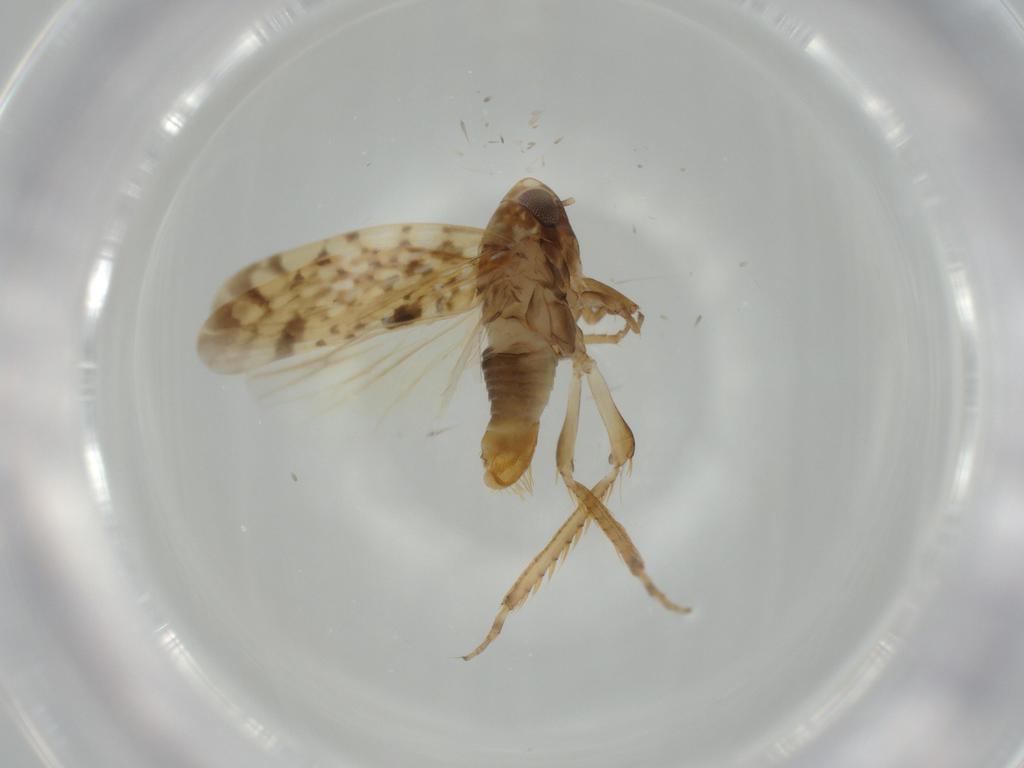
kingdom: Animalia
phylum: Arthropoda
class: Insecta
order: Hemiptera
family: Cicadellidae
